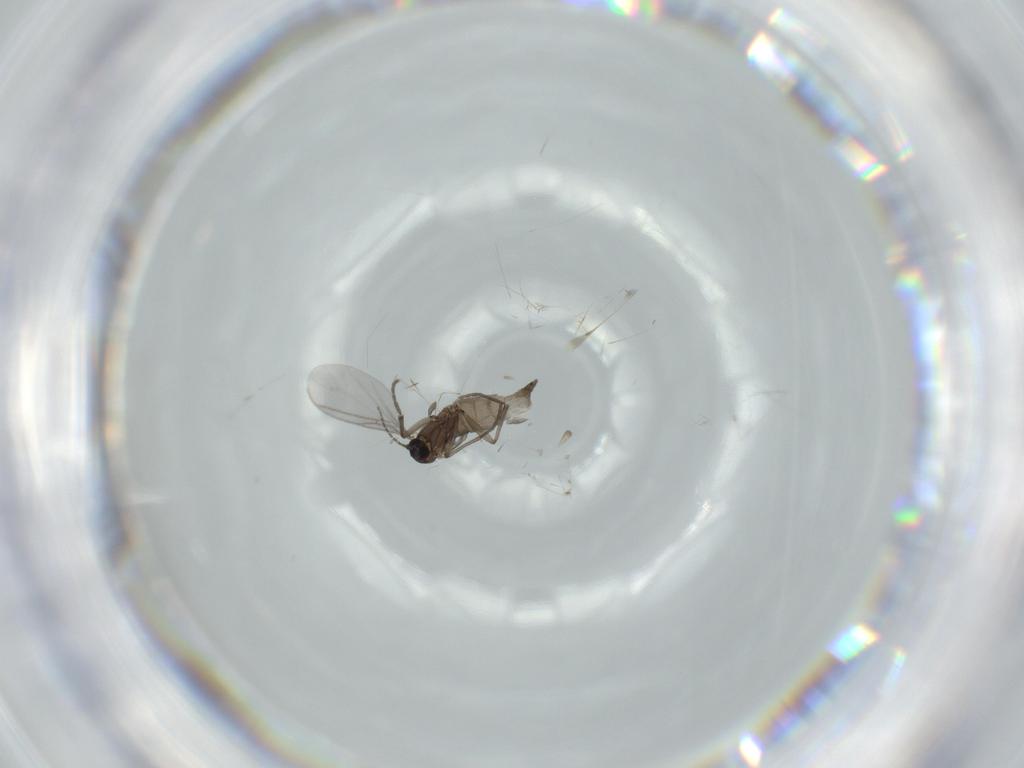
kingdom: Animalia
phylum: Arthropoda
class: Insecta
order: Diptera
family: Sciaridae
